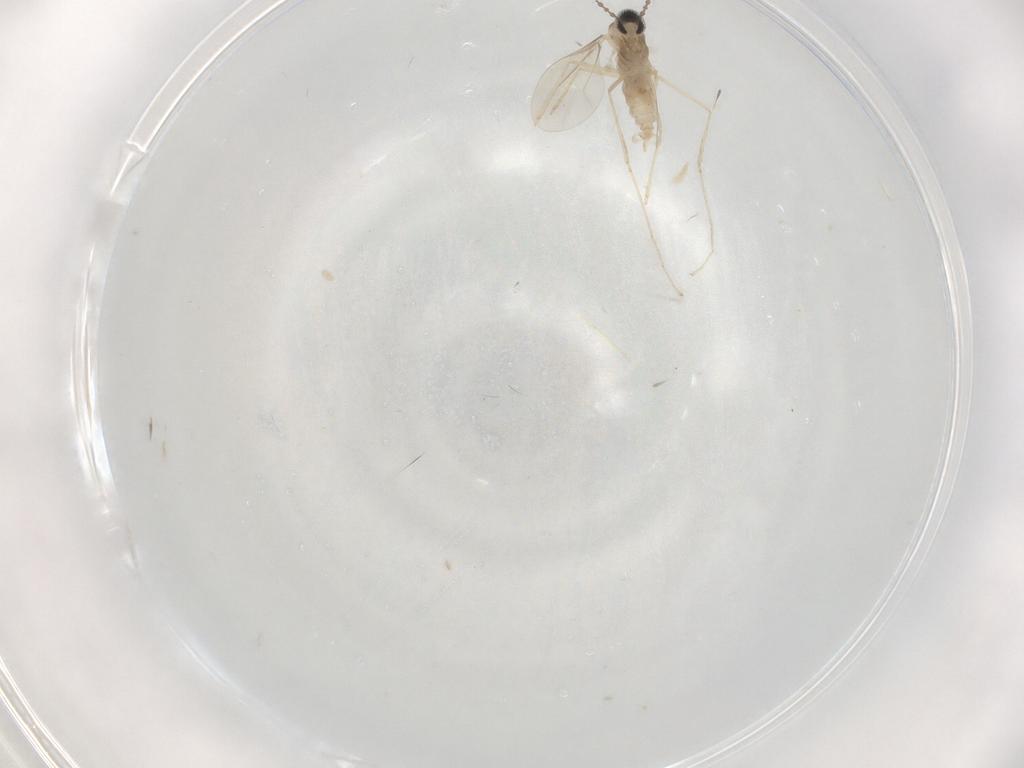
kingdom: Animalia
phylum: Arthropoda
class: Insecta
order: Diptera
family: Cecidomyiidae
